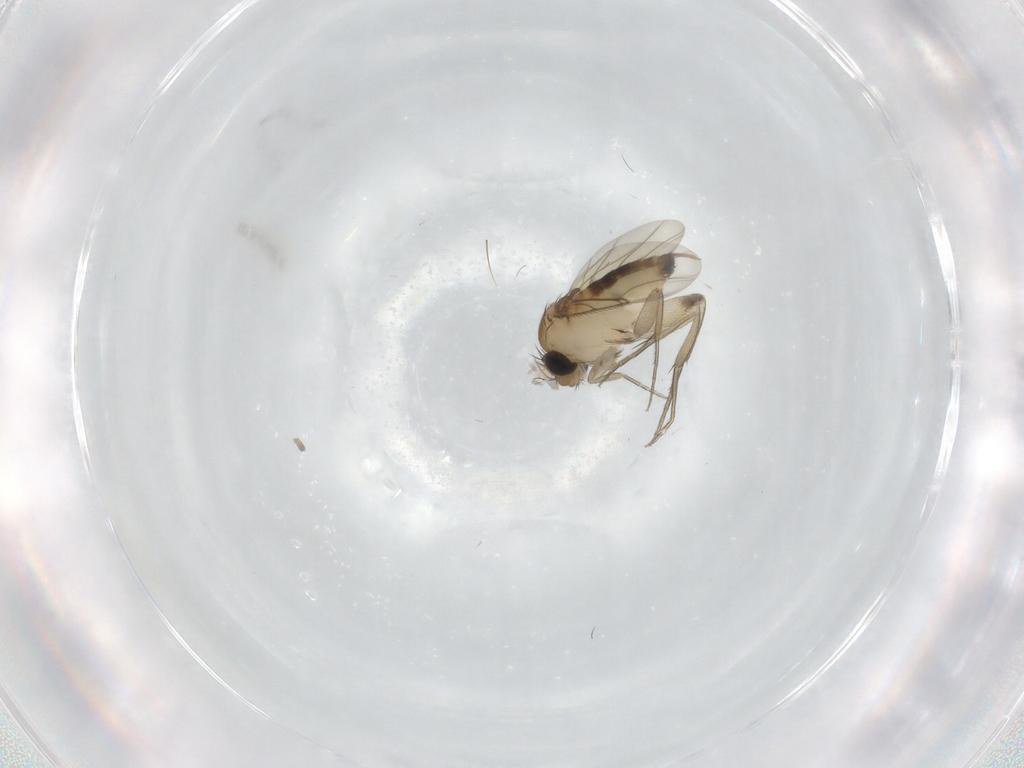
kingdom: Animalia
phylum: Arthropoda
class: Insecta
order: Diptera
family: Phoridae
